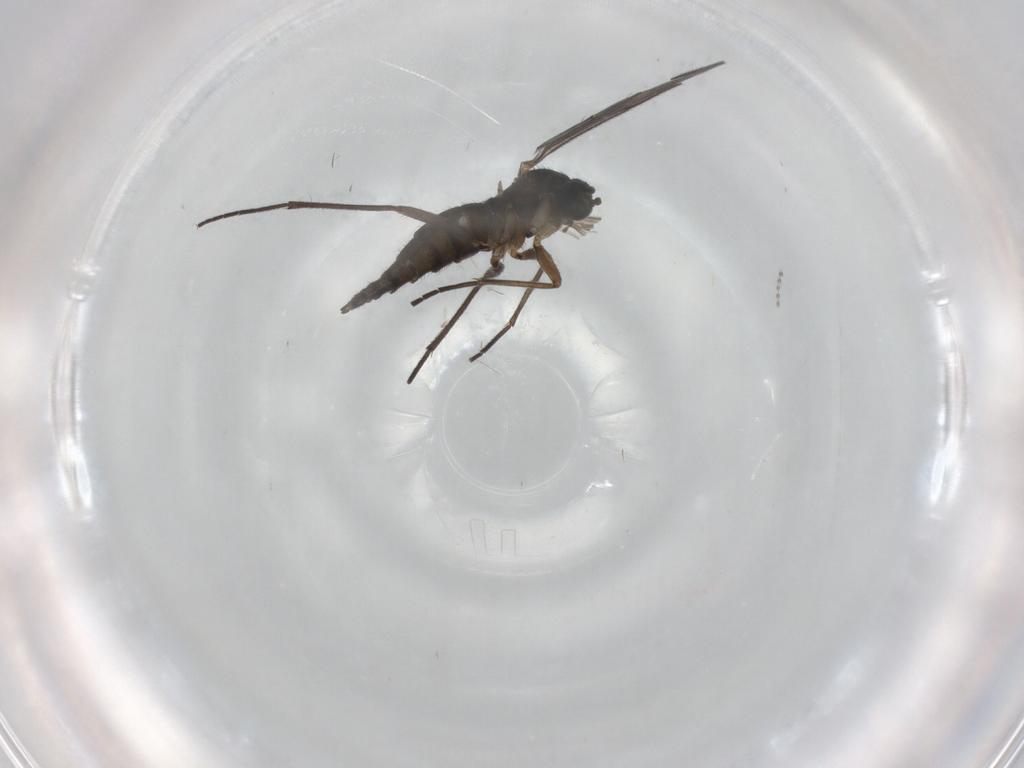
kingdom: Animalia
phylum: Arthropoda
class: Insecta
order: Diptera
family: Sciaridae
